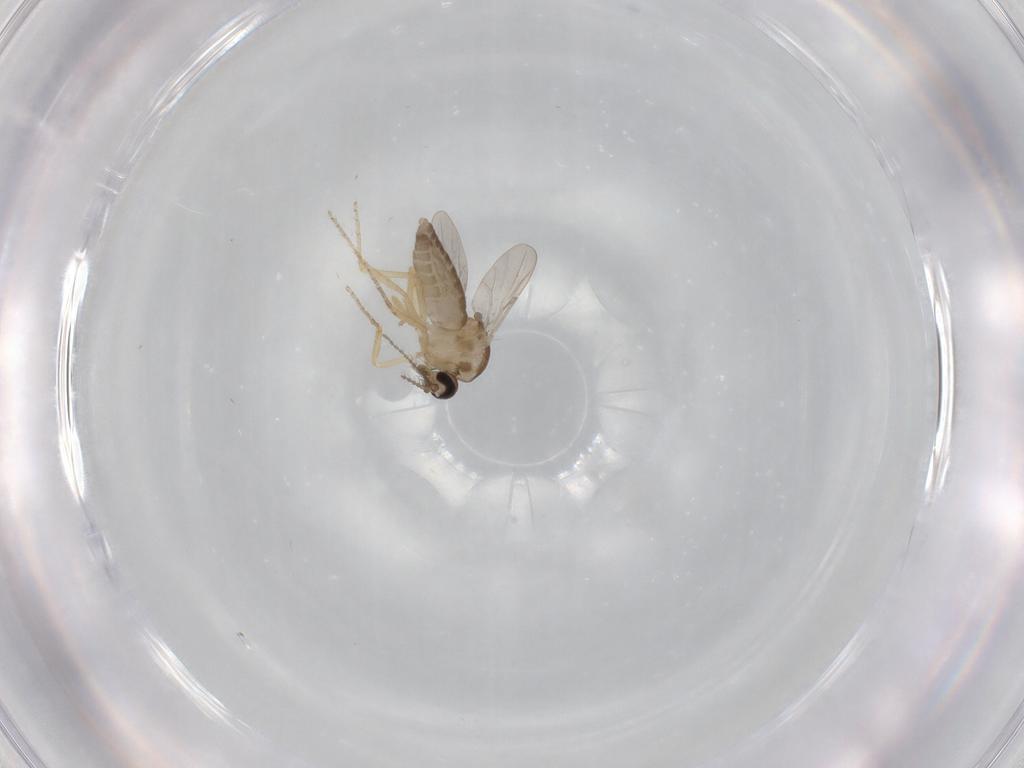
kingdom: Animalia
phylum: Arthropoda
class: Insecta
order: Diptera
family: Ceratopogonidae
